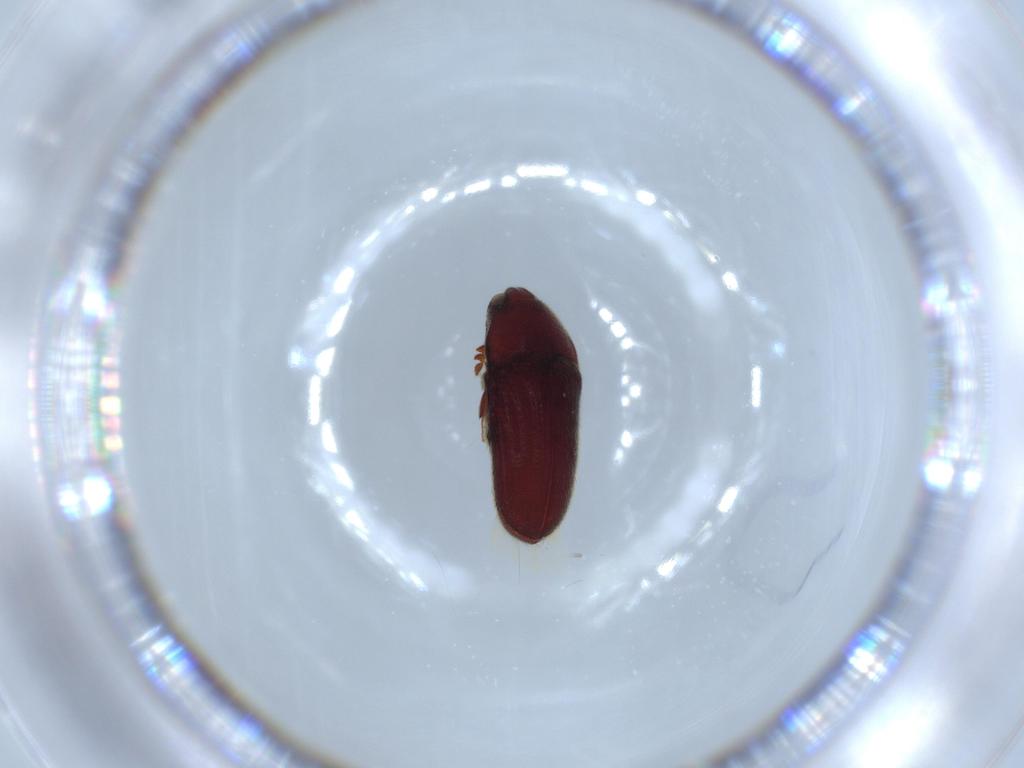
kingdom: Animalia
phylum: Arthropoda
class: Insecta
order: Coleoptera
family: Throscidae
